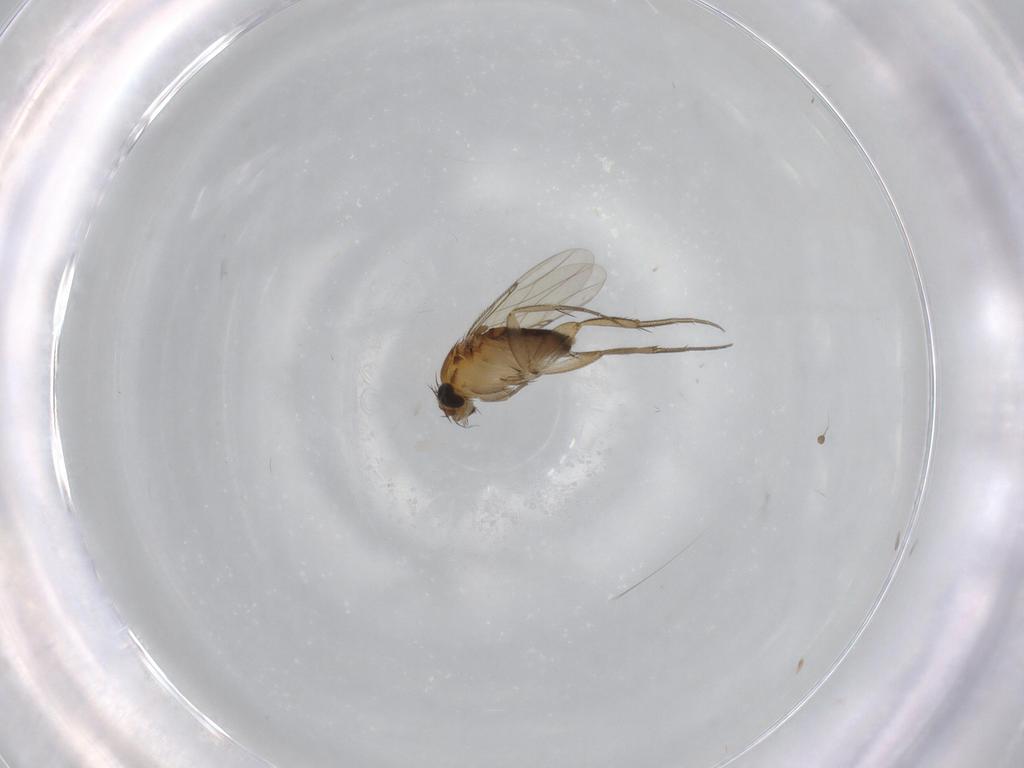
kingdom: Animalia
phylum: Arthropoda
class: Insecta
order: Diptera
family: Phoridae
